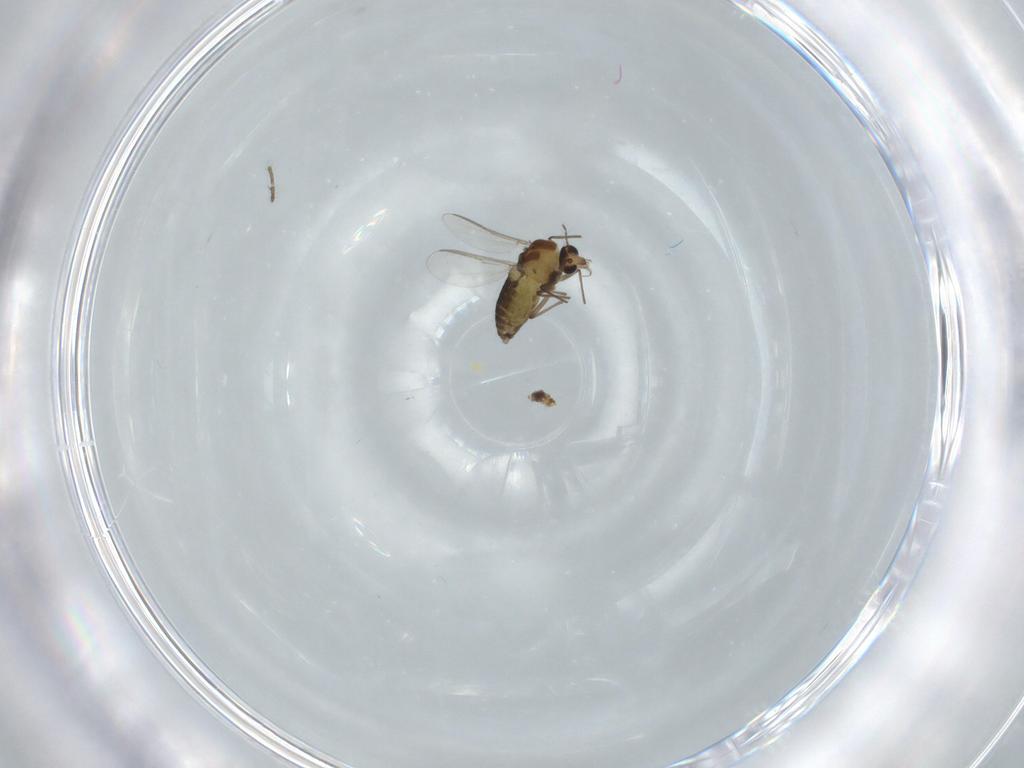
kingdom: Animalia
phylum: Arthropoda
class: Insecta
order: Diptera
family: Chironomidae
